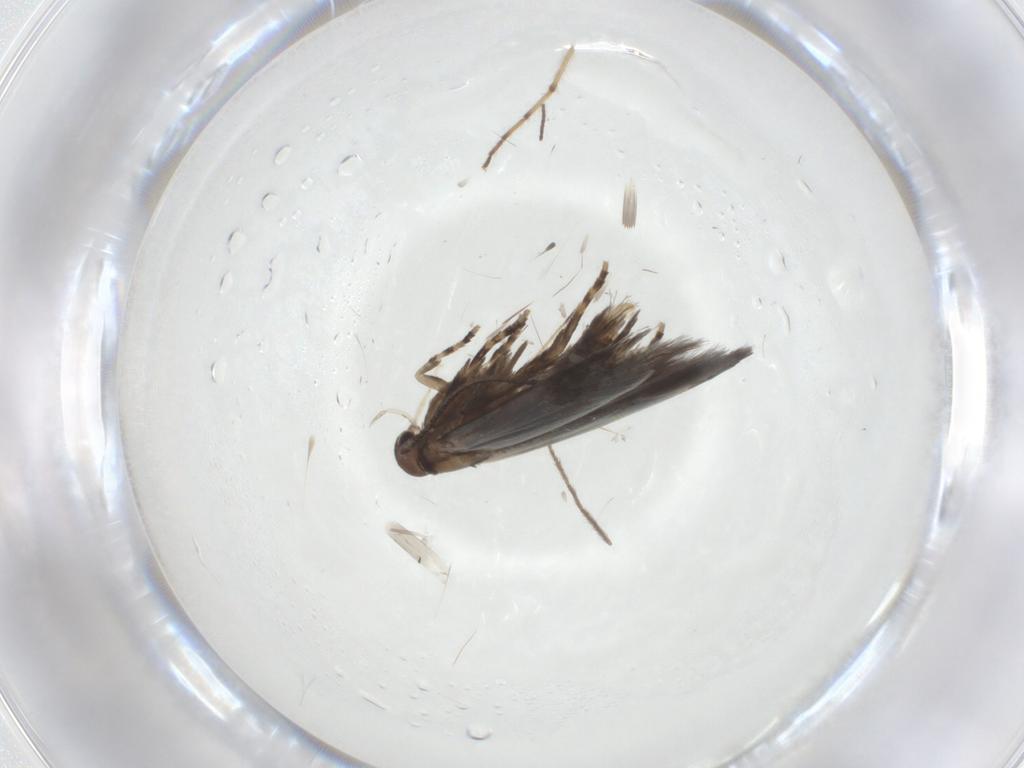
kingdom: Animalia
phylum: Arthropoda
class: Insecta
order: Lepidoptera
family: Elachistidae
